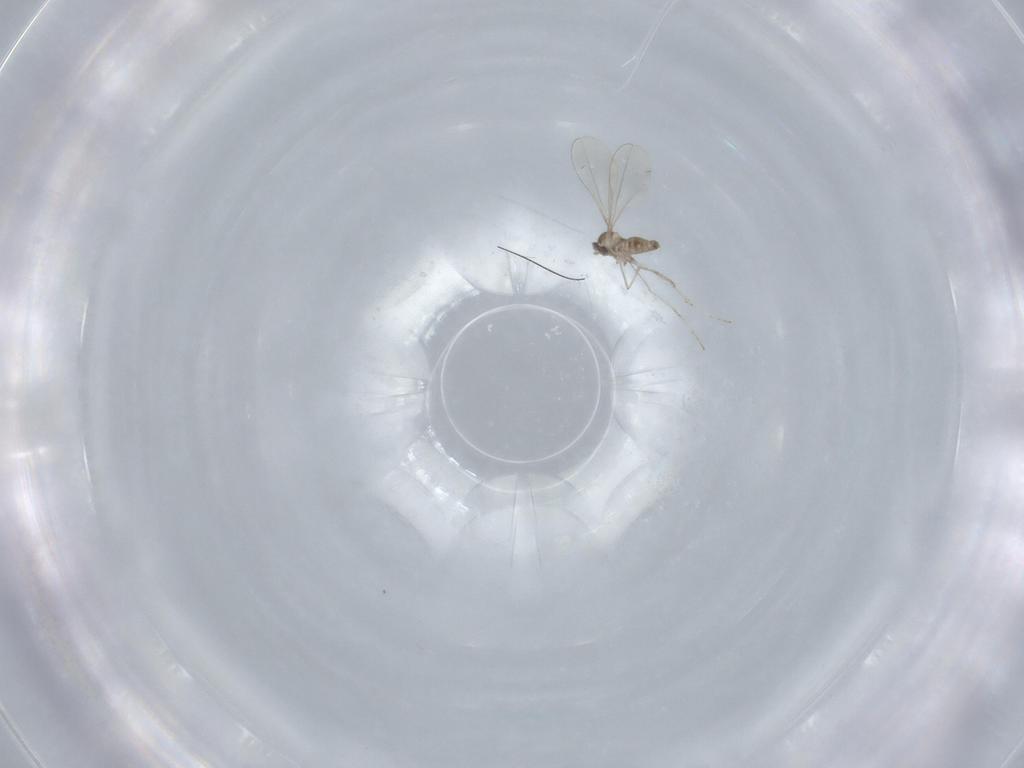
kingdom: Animalia
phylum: Arthropoda
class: Insecta
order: Diptera
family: Cecidomyiidae
